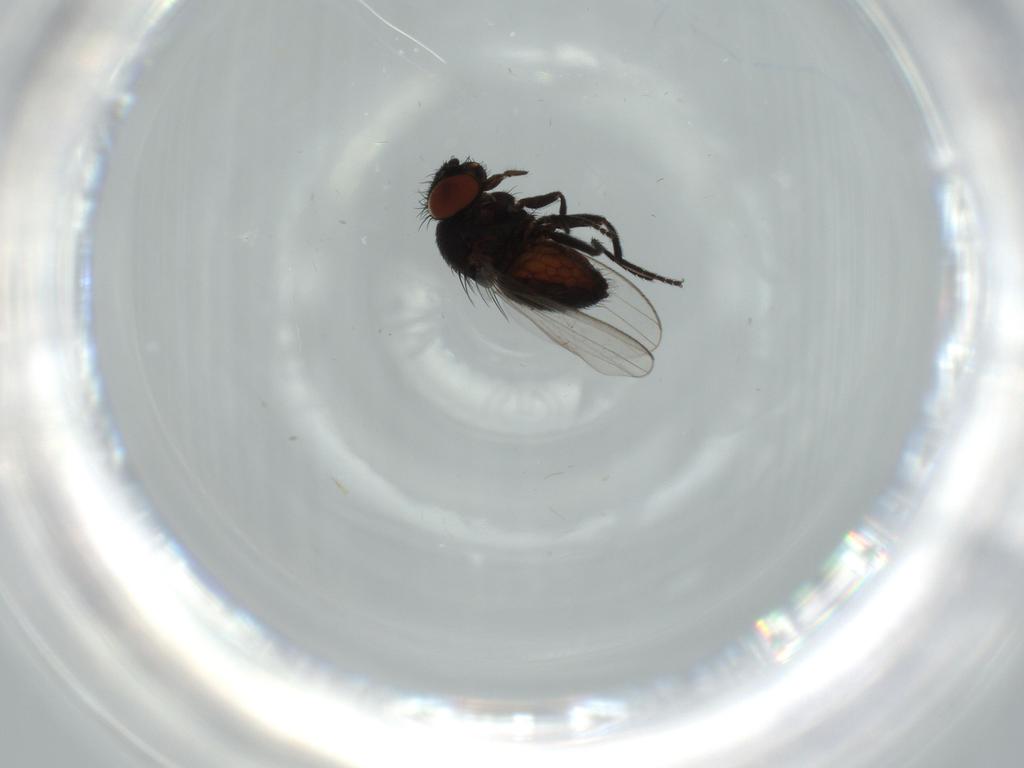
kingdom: Animalia
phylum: Arthropoda
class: Insecta
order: Diptera
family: Milichiidae
